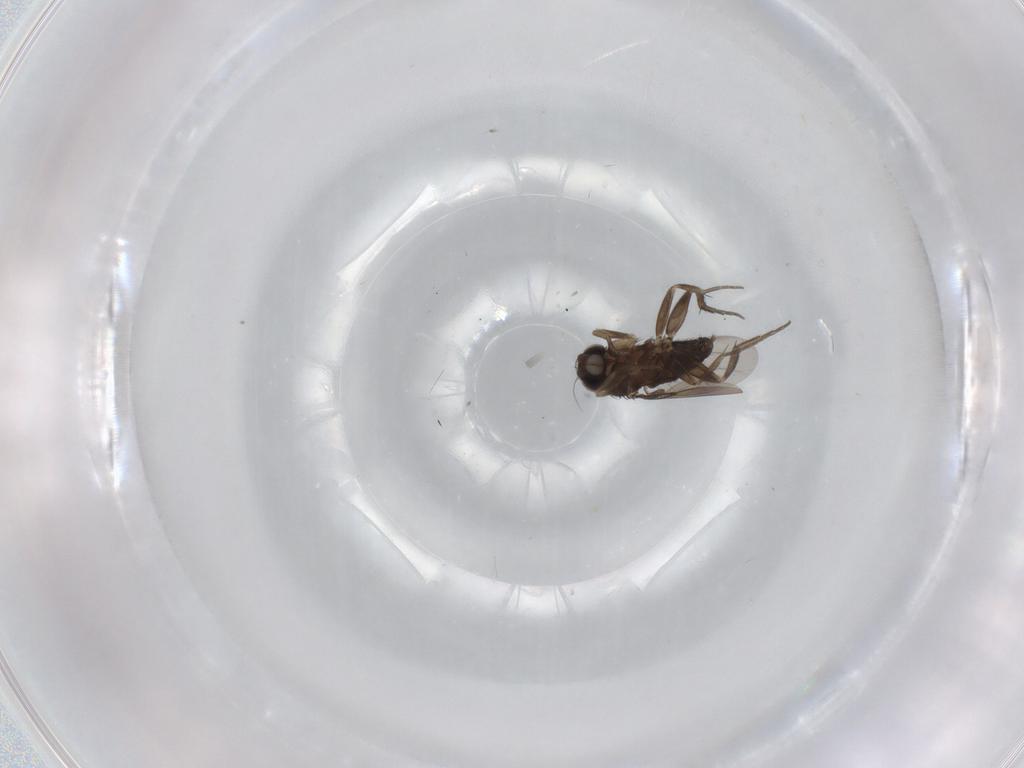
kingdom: Animalia
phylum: Arthropoda
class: Insecta
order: Diptera
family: Phoridae
